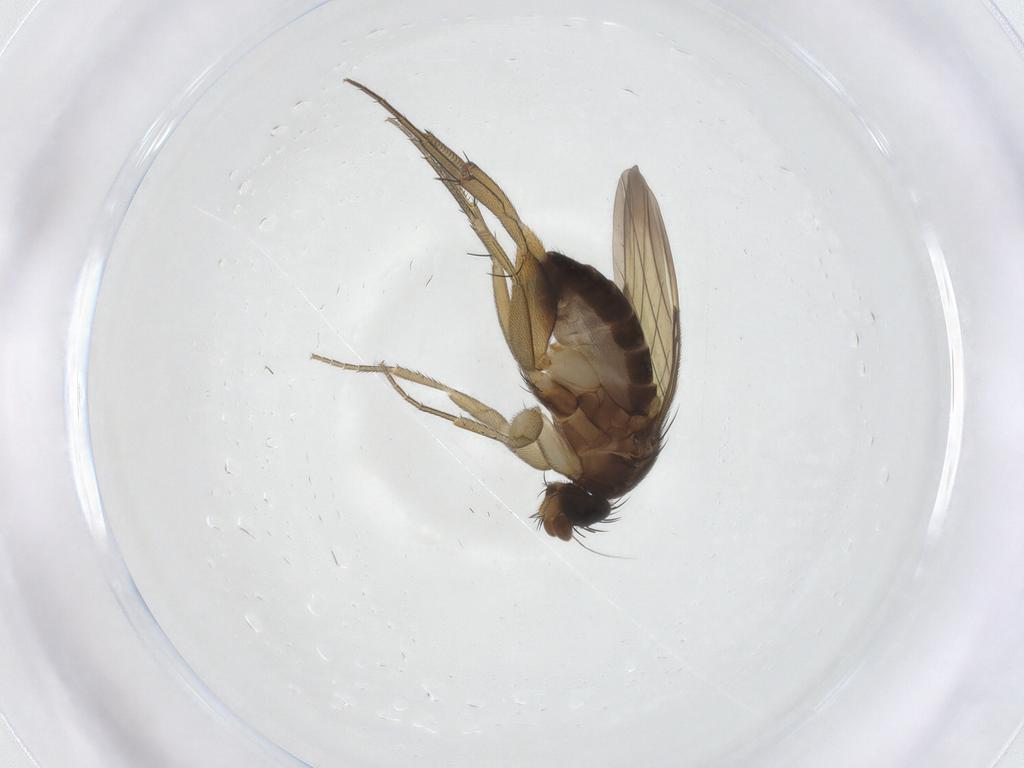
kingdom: Animalia
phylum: Arthropoda
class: Insecta
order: Diptera
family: Phoridae
